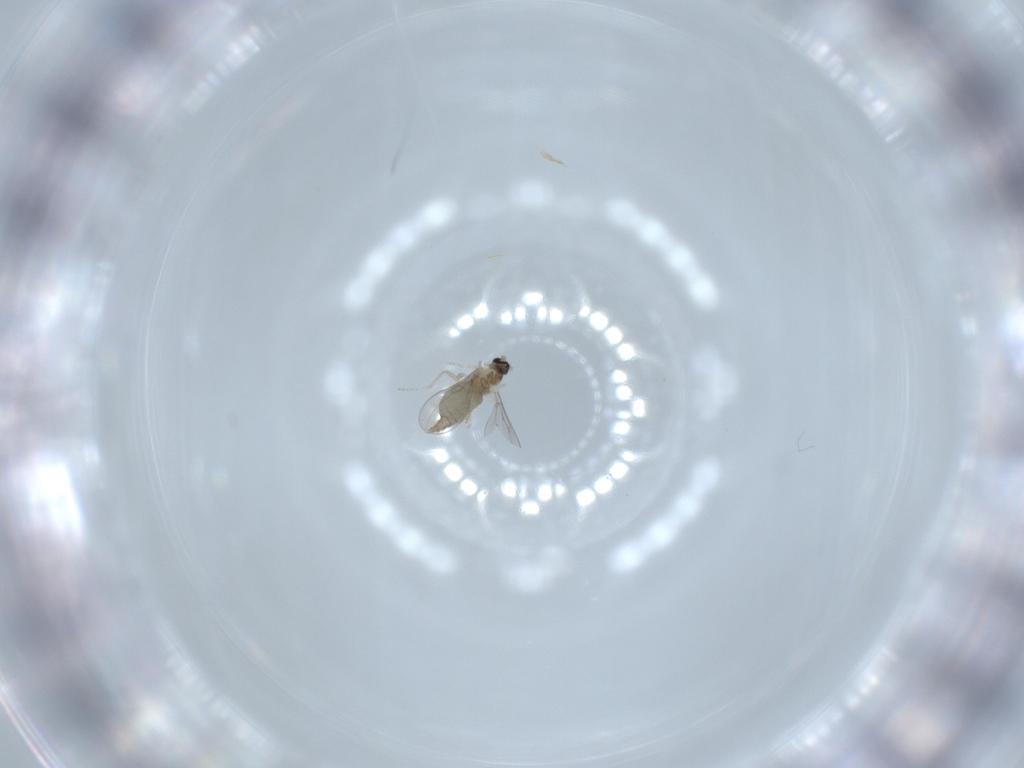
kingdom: Animalia
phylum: Arthropoda
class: Insecta
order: Diptera
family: Cecidomyiidae
